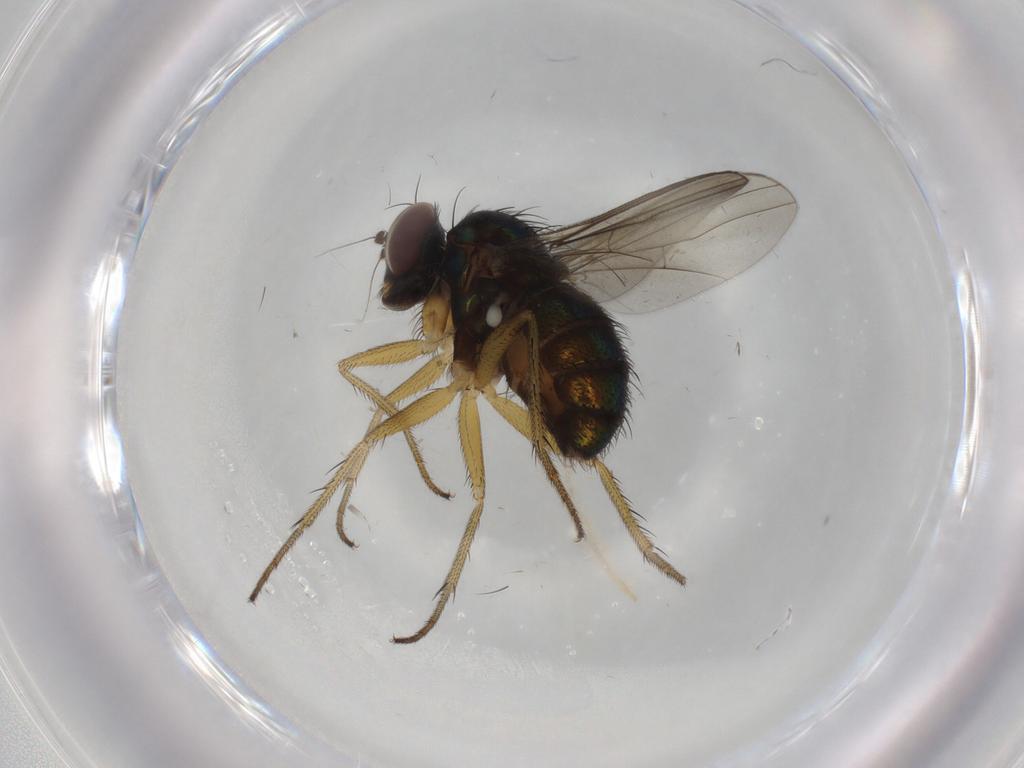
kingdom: Animalia
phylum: Arthropoda
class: Insecta
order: Diptera
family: Dolichopodidae
